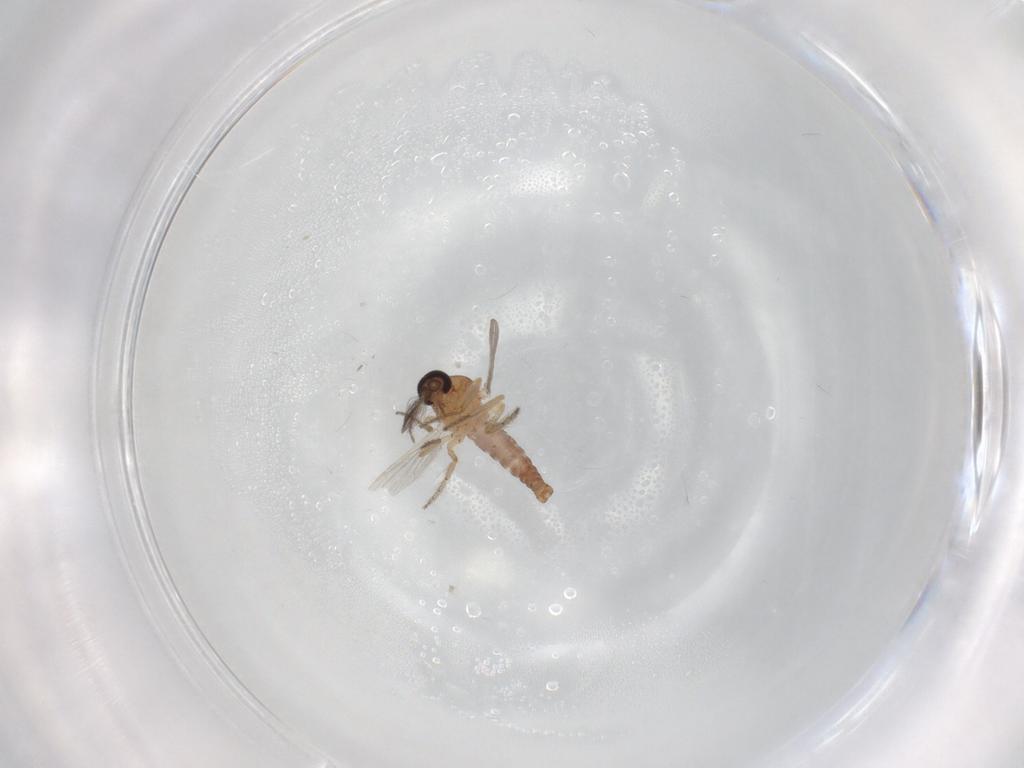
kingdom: Animalia
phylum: Arthropoda
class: Insecta
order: Diptera
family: Ceratopogonidae
